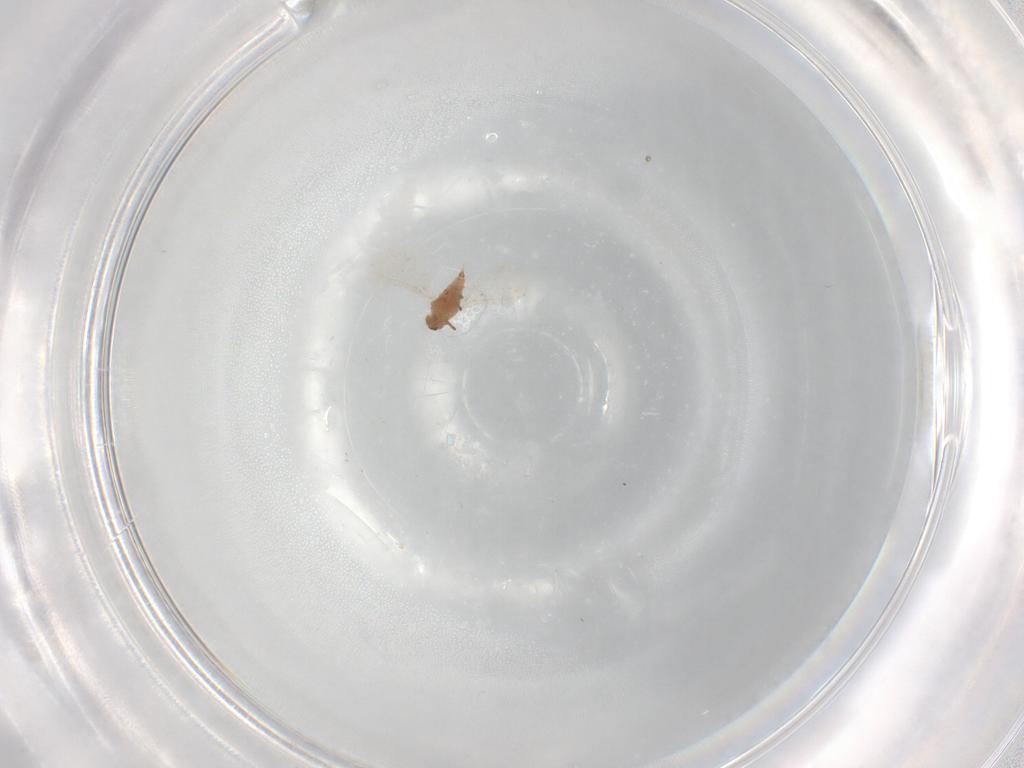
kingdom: Animalia
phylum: Arthropoda
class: Insecta
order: Hemiptera
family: Coccoidea_incertae_sedis
